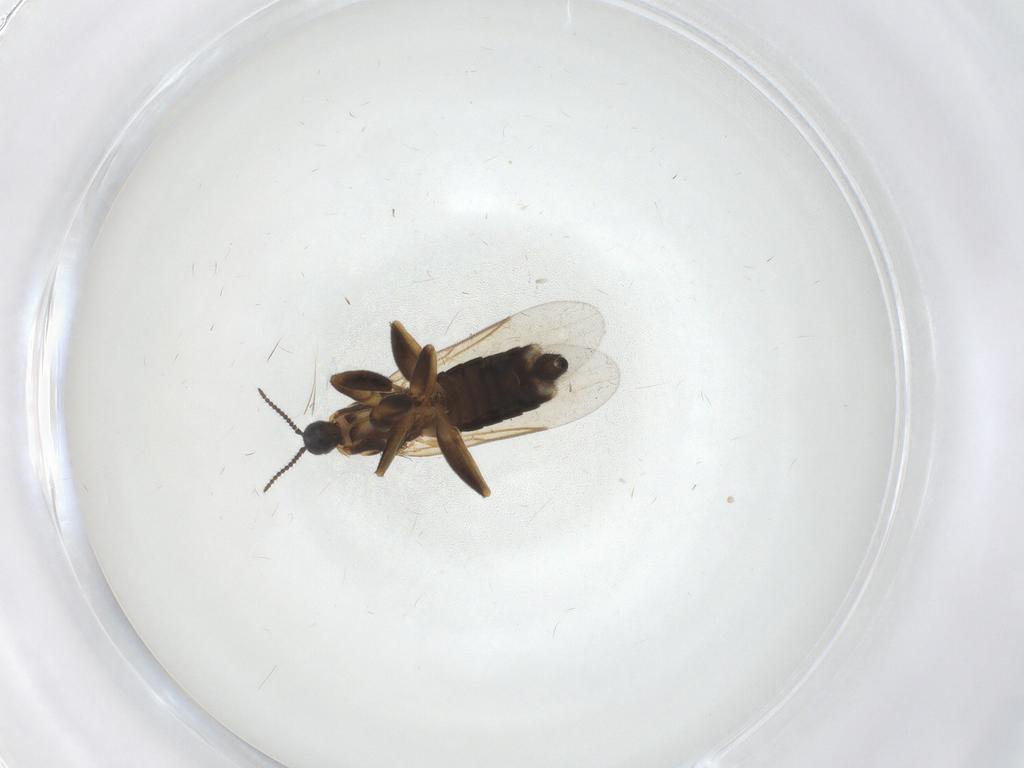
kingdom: Animalia
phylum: Arthropoda
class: Insecta
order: Diptera
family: Scatopsidae
